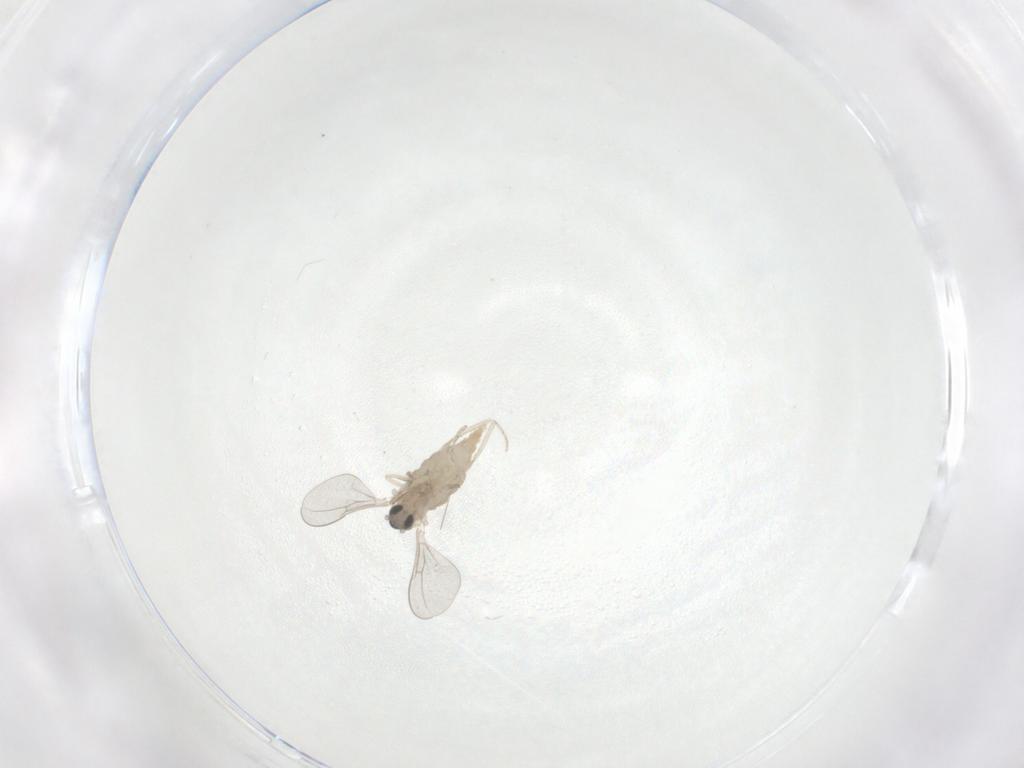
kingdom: Animalia
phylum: Arthropoda
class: Insecta
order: Diptera
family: Cecidomyiidae
